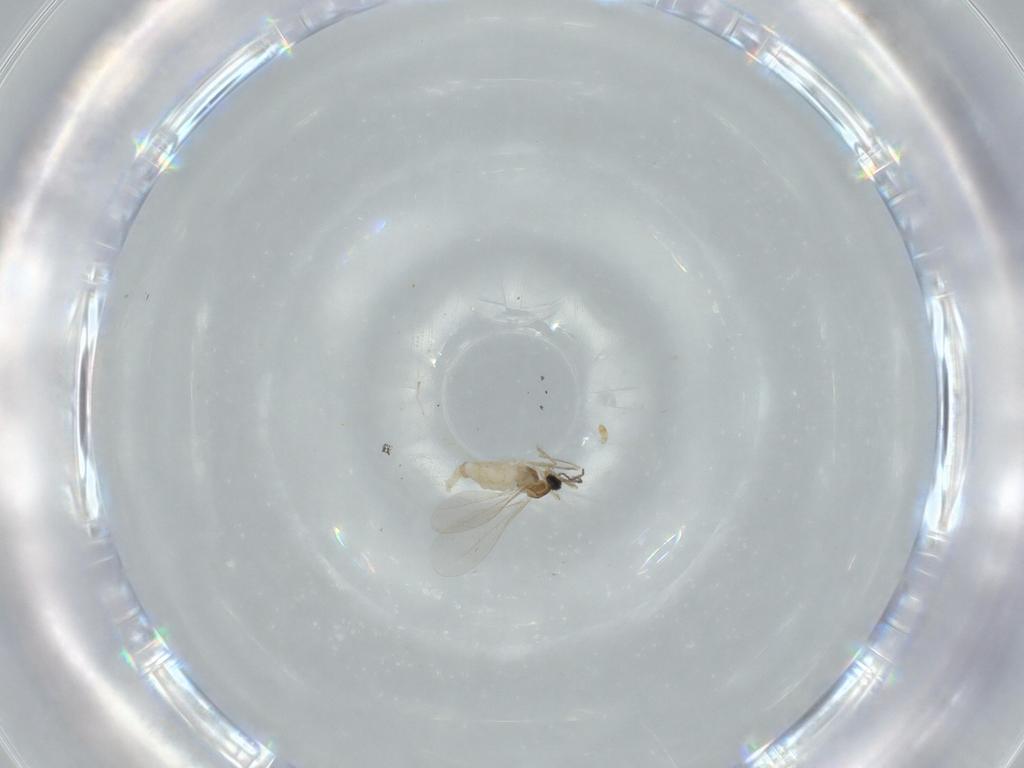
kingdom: Animalia
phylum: Arthropoda
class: Insecta
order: Diptera
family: Cecidomyiidae
